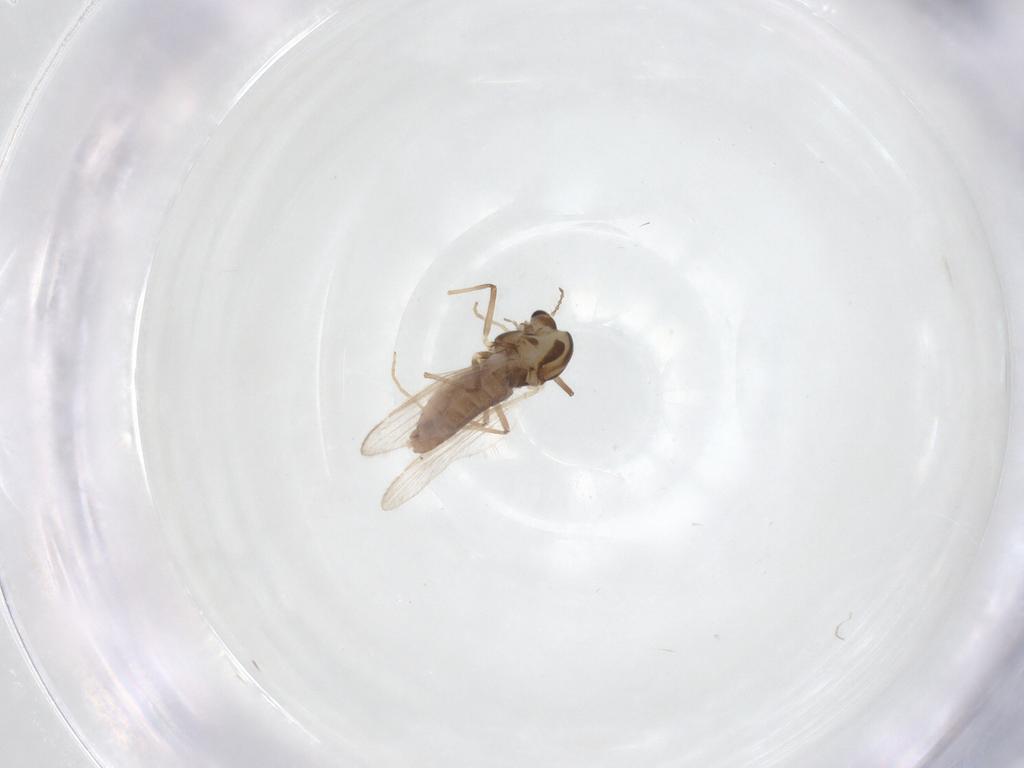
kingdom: Animalia
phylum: Arthropoda
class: Insecta
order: Diptera
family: Chironomidae
